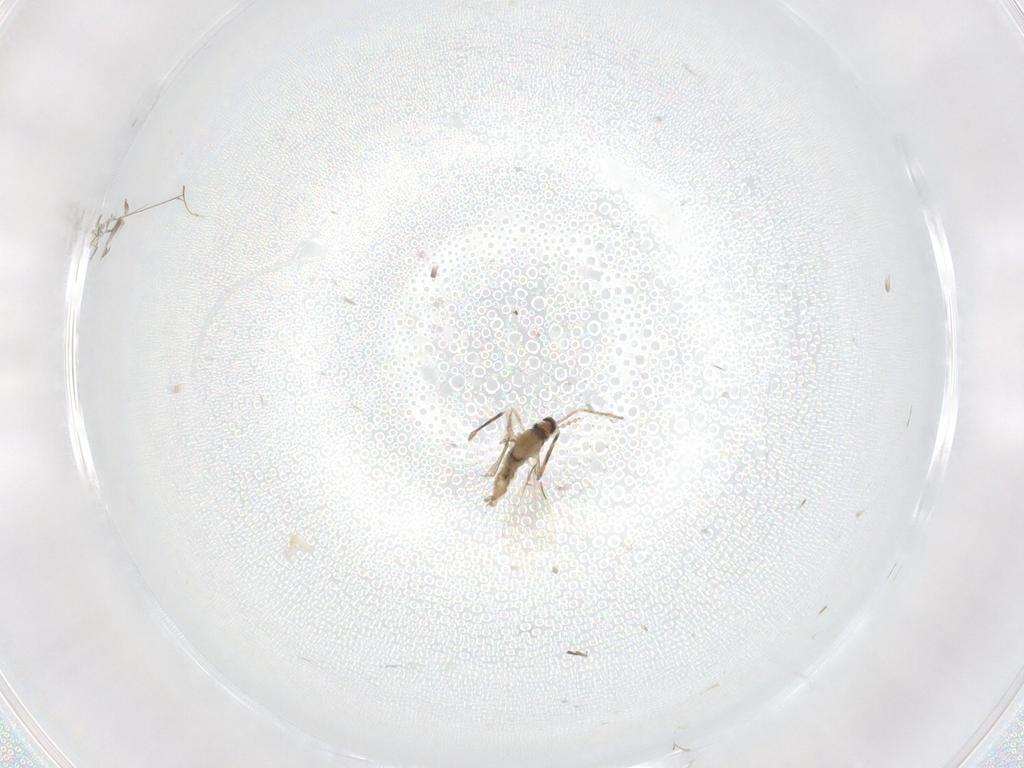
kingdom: Animalia
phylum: Arthropoda
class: Insecta
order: Diptera
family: Cecidomyiidae
